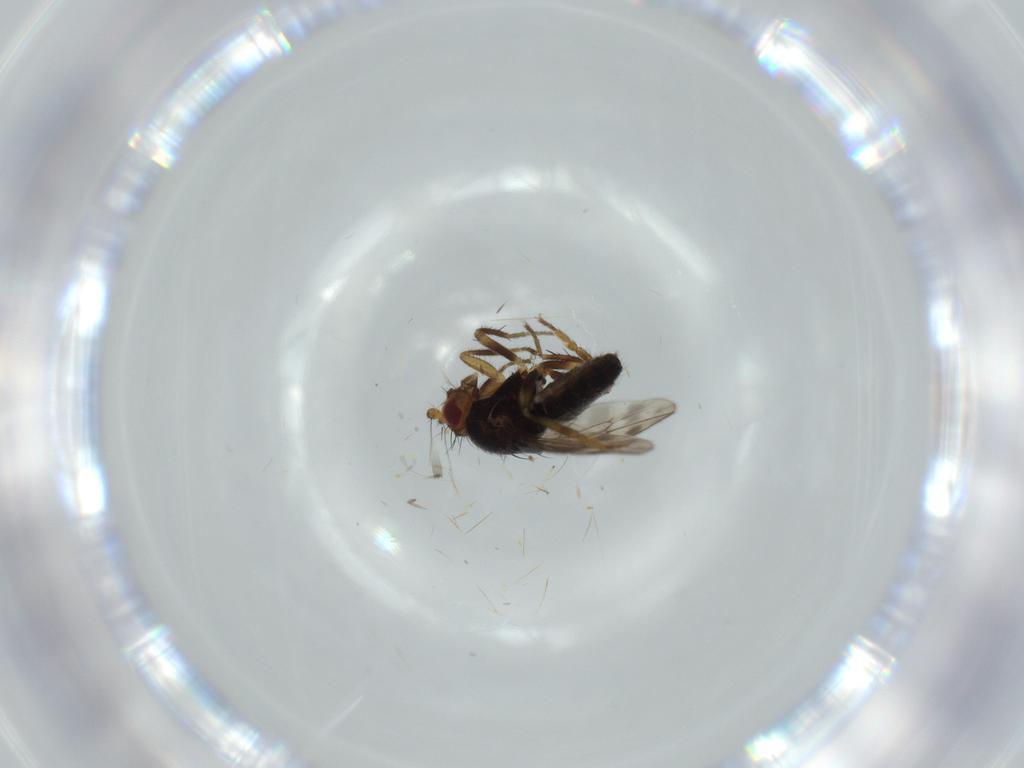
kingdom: Animalia
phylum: Arthropoda
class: Insecta
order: Diptera
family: Sphaeroceridae
